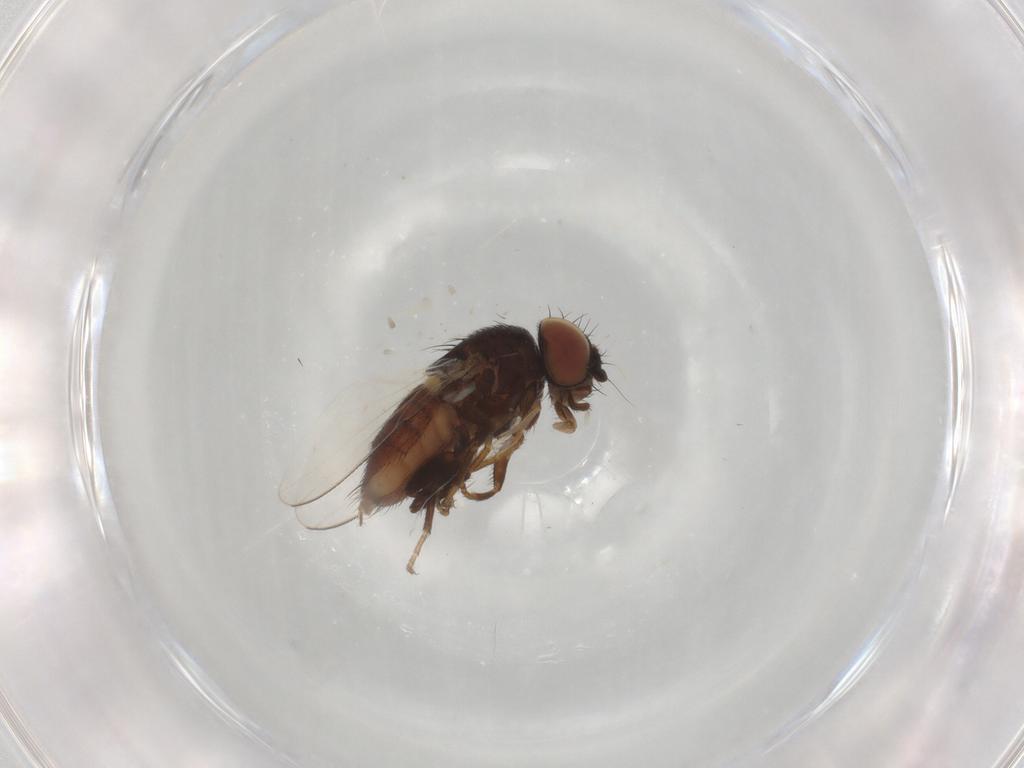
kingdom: Animalia
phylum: Arthropoda
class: Insecta
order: Diptera
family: Milichiidae
